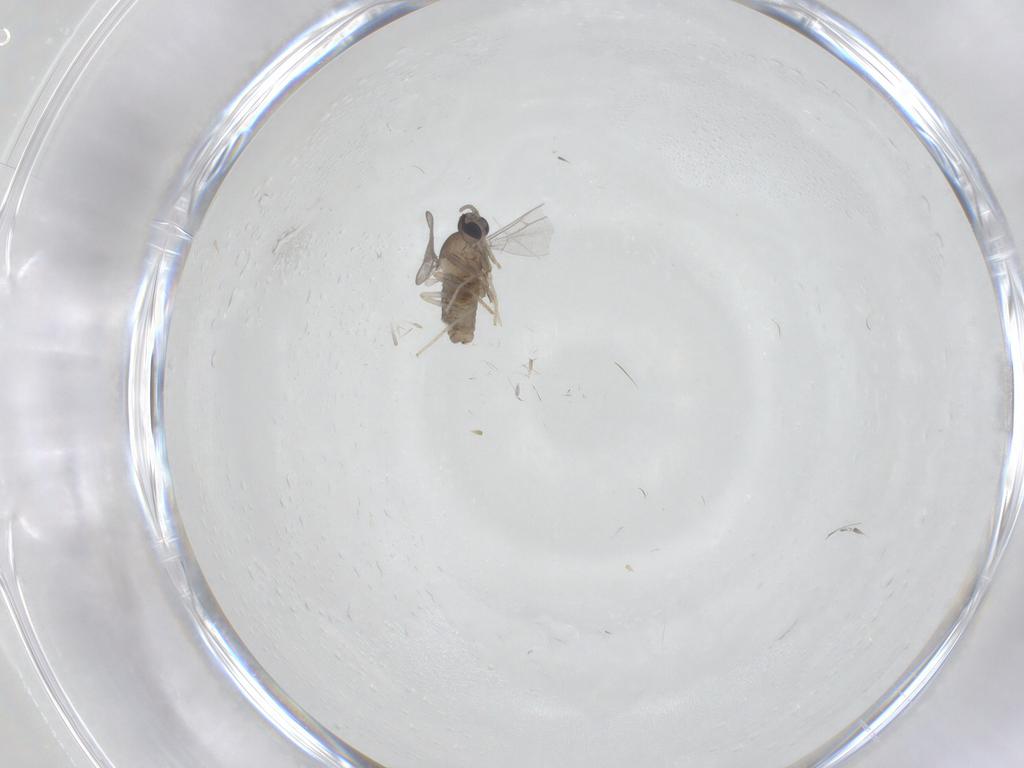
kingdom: Animalia
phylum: Arthropoda
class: Insecta
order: Diptera
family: Cecidomyiidae
